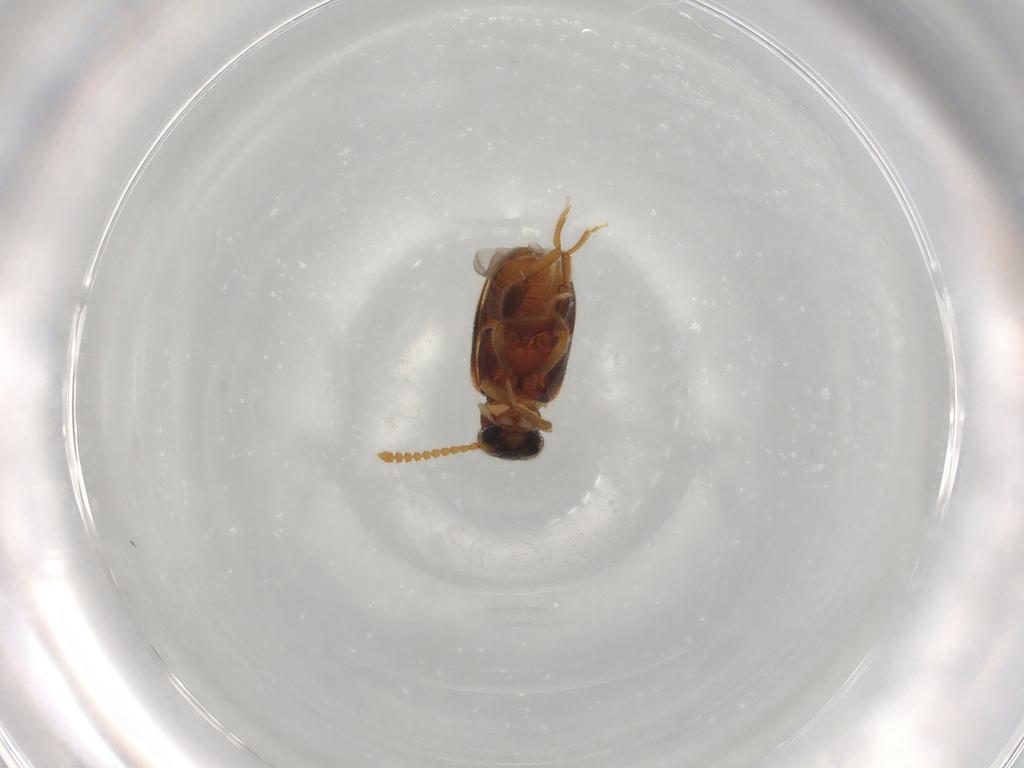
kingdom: Animalia
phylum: Arthropoda
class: Insecta
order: Coleoptera
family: Aderidae
